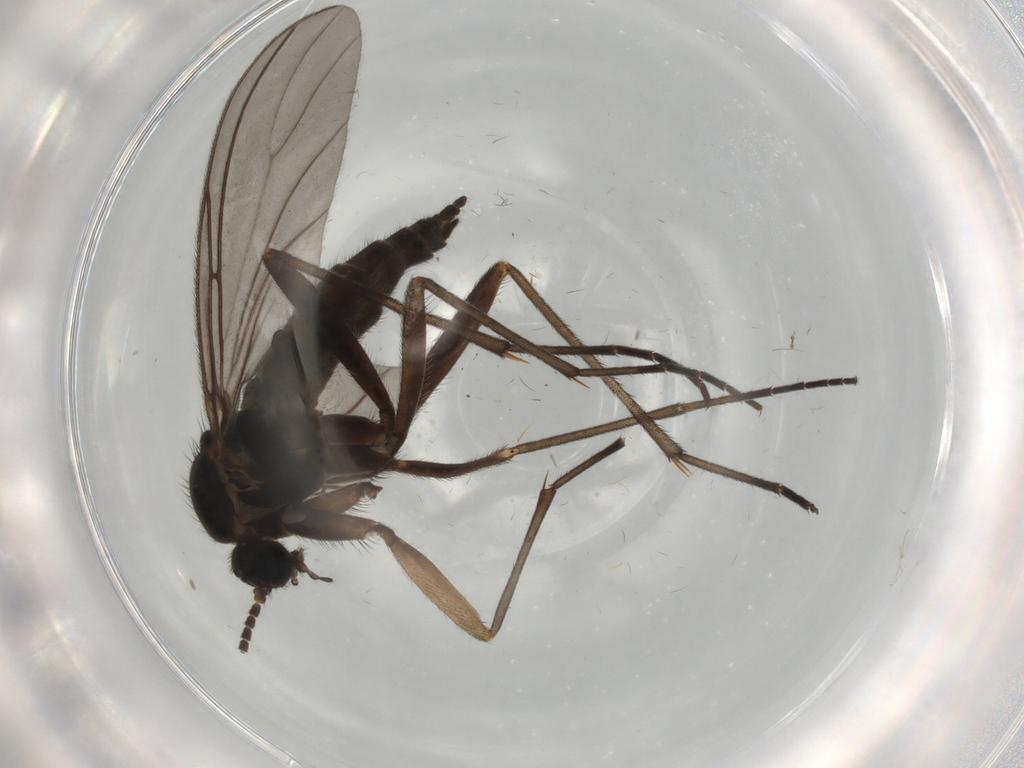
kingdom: Animalia
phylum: Arthropoda
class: Insecta
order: Diptera
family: Sciaridae
